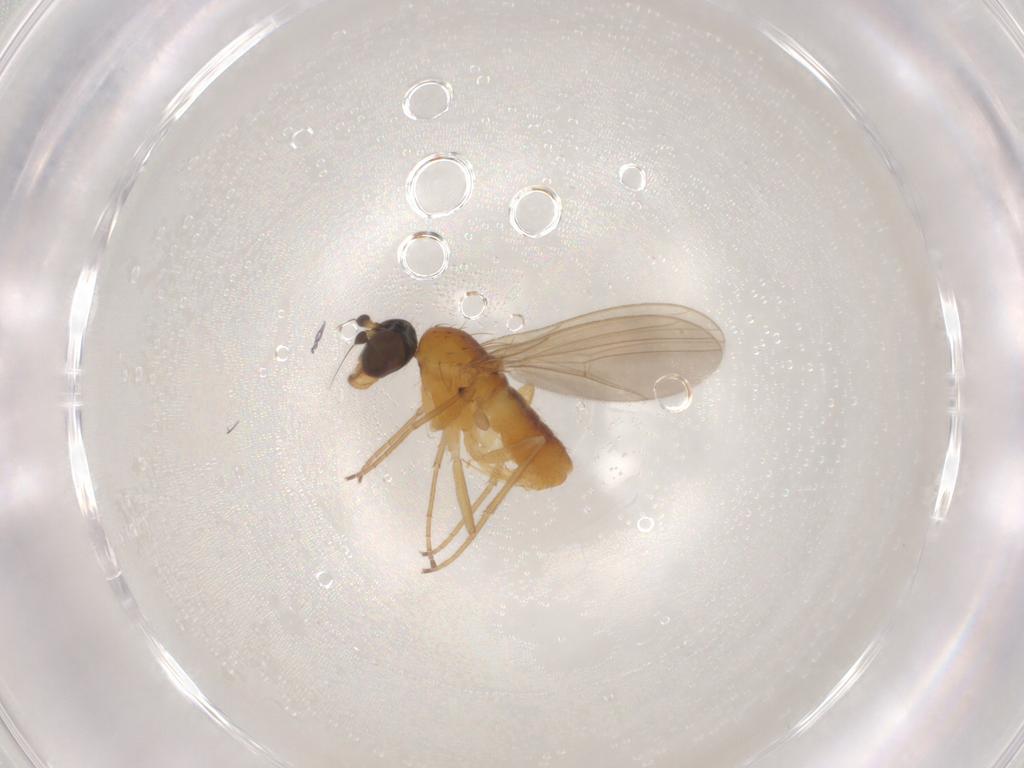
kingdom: Animalia
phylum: Arthropoda
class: Insecta
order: Diptera
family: Dolichopodidae
